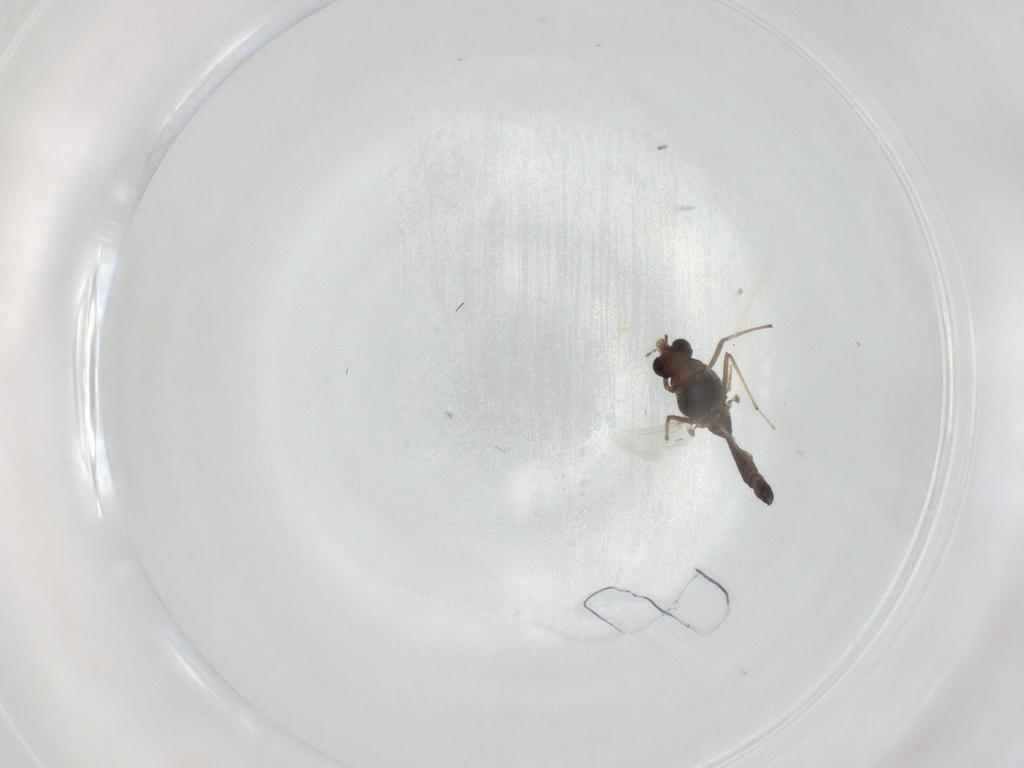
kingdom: Animalia
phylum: Arthropoda
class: Insecta
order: Diptera
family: Chironomidae
